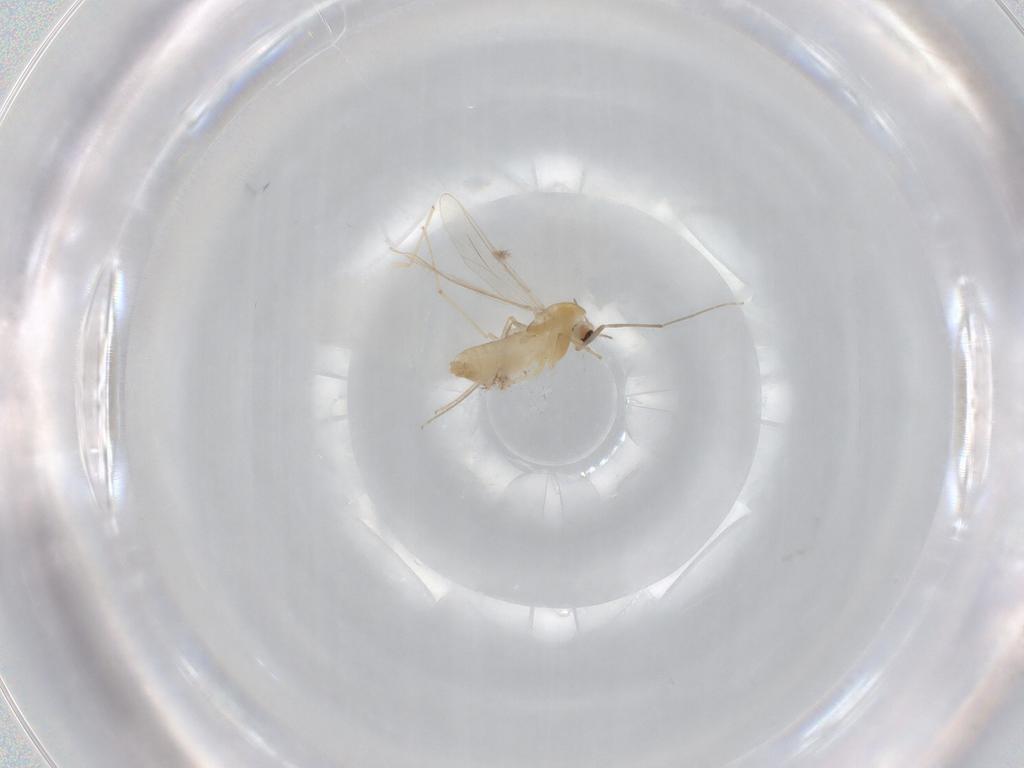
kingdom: Animalia
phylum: Arthropoda
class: Insecta
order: Diptera
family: Chironomidae
